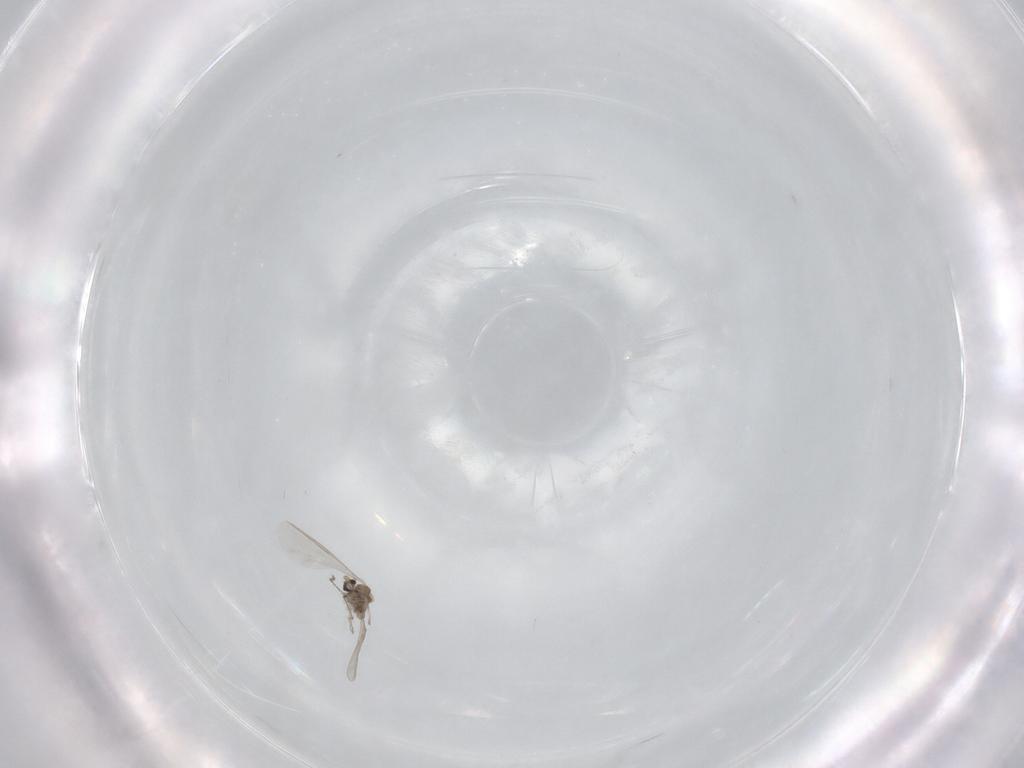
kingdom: Animalia
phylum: Arthropoda
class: Insecta
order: Diptera
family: Cecidomyiidae
